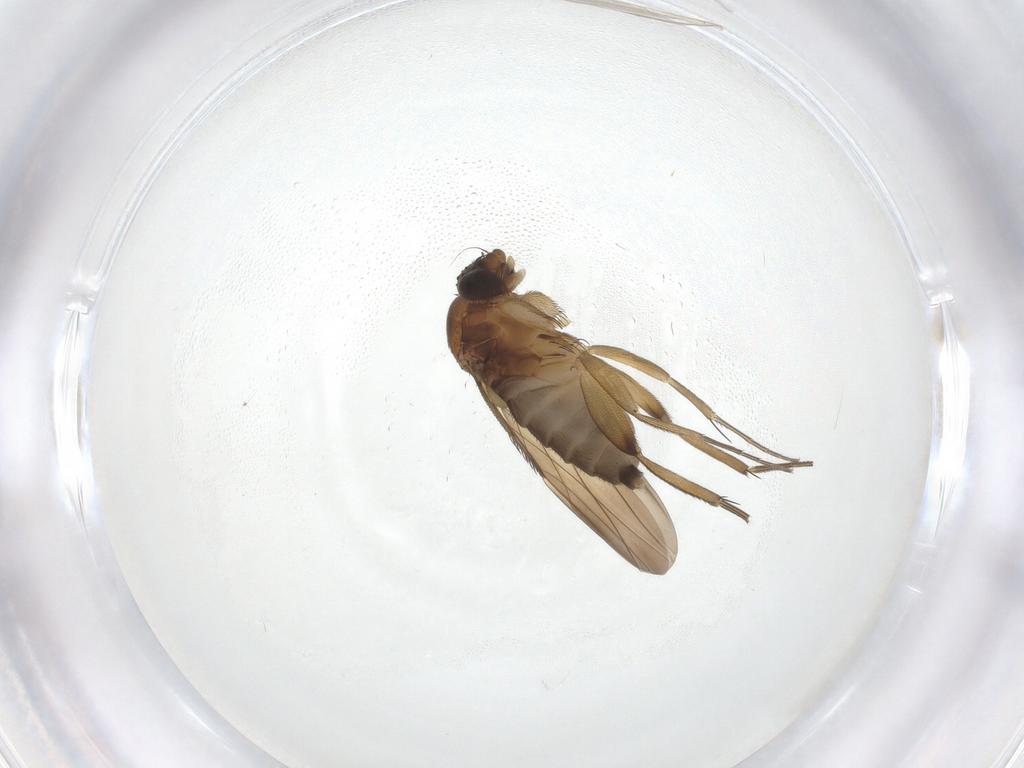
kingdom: Animalia
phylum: Arthropoda
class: Insecta
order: Diptera
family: Phoridae
